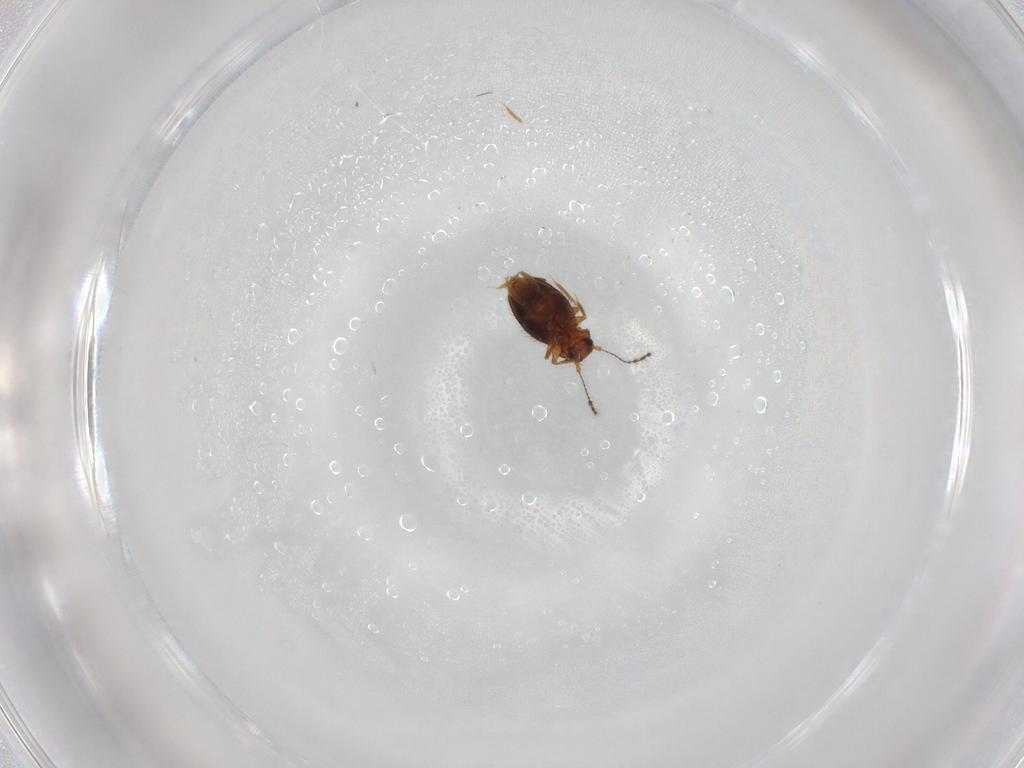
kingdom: Animalia
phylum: Arthropoda
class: Insecta
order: Coleoptera
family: Ptiliidae
